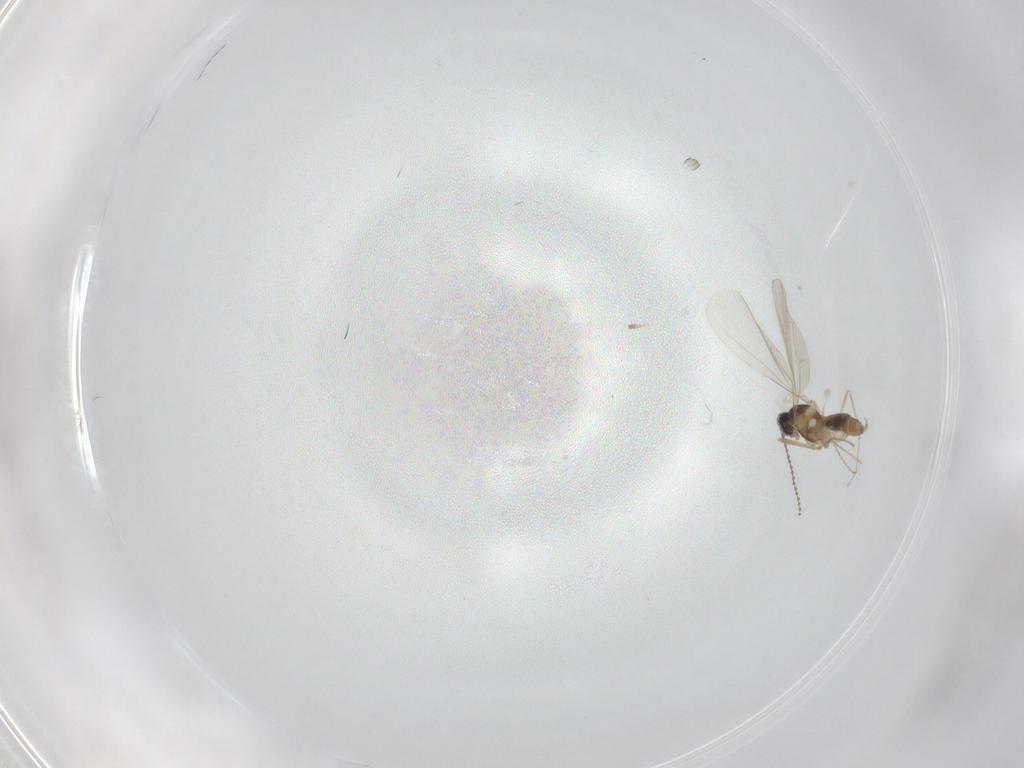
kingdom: Animalia
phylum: Arthropoda
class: Insecta
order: Diptera
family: Cecidomyiidae
